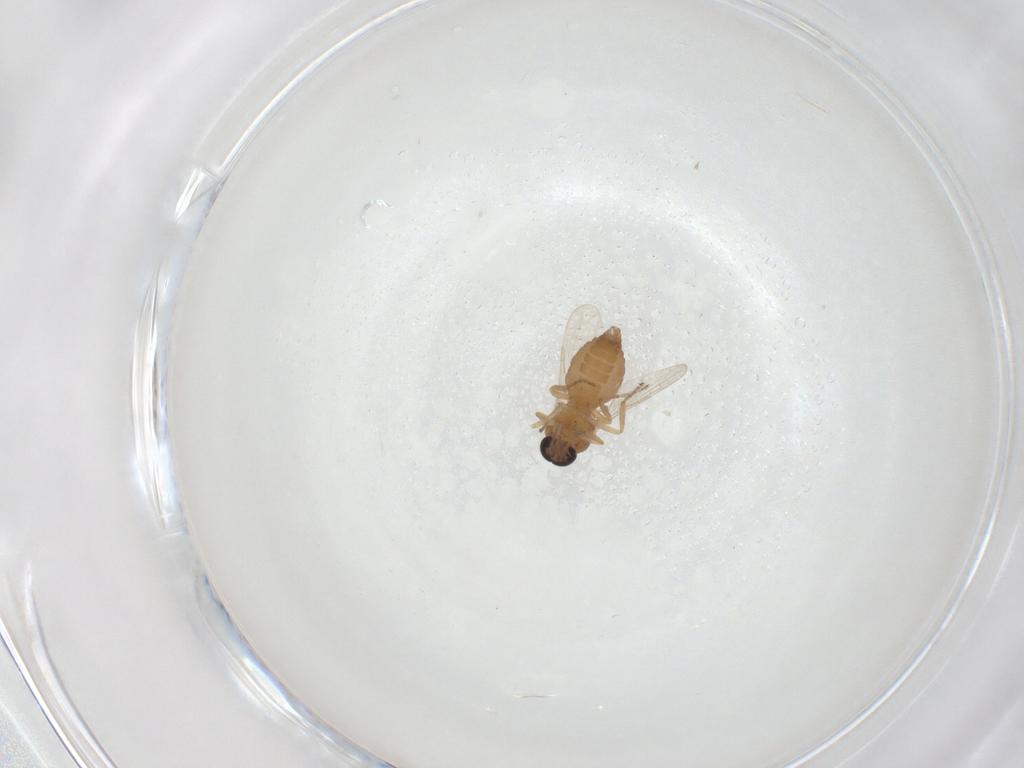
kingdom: Animalia
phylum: Arthropoda
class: Insecta
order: Diptera
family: Ceratopogonidae
